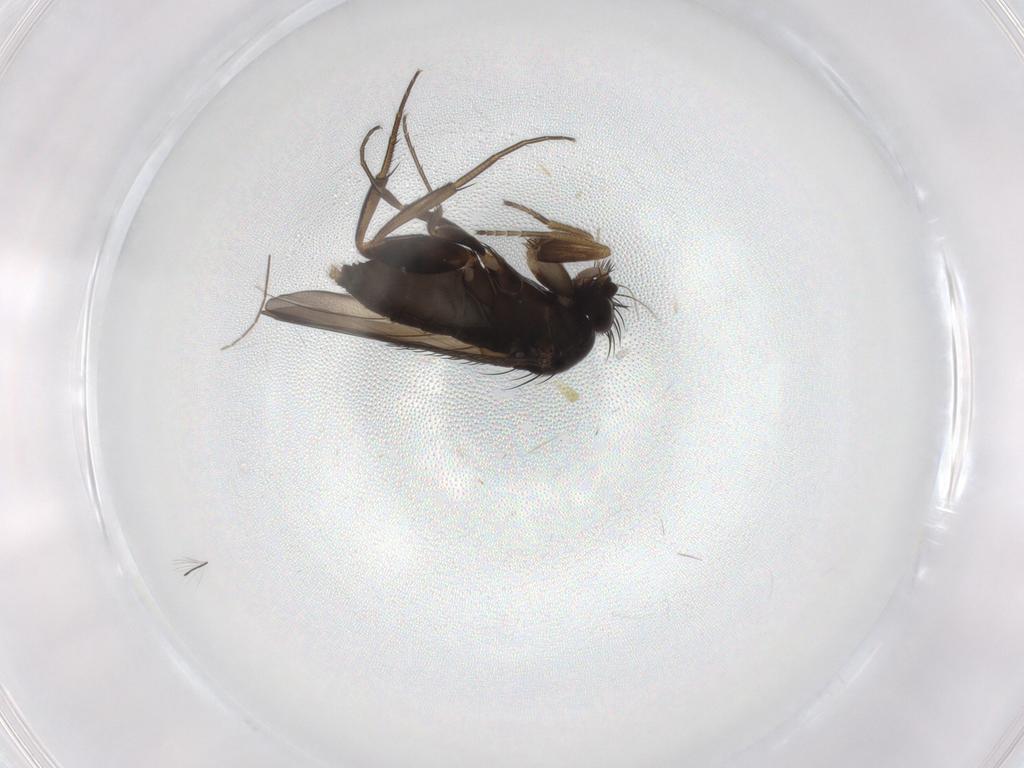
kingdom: Animalia
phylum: Arthropoda
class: Insecta
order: Diptera
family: Phoridae
